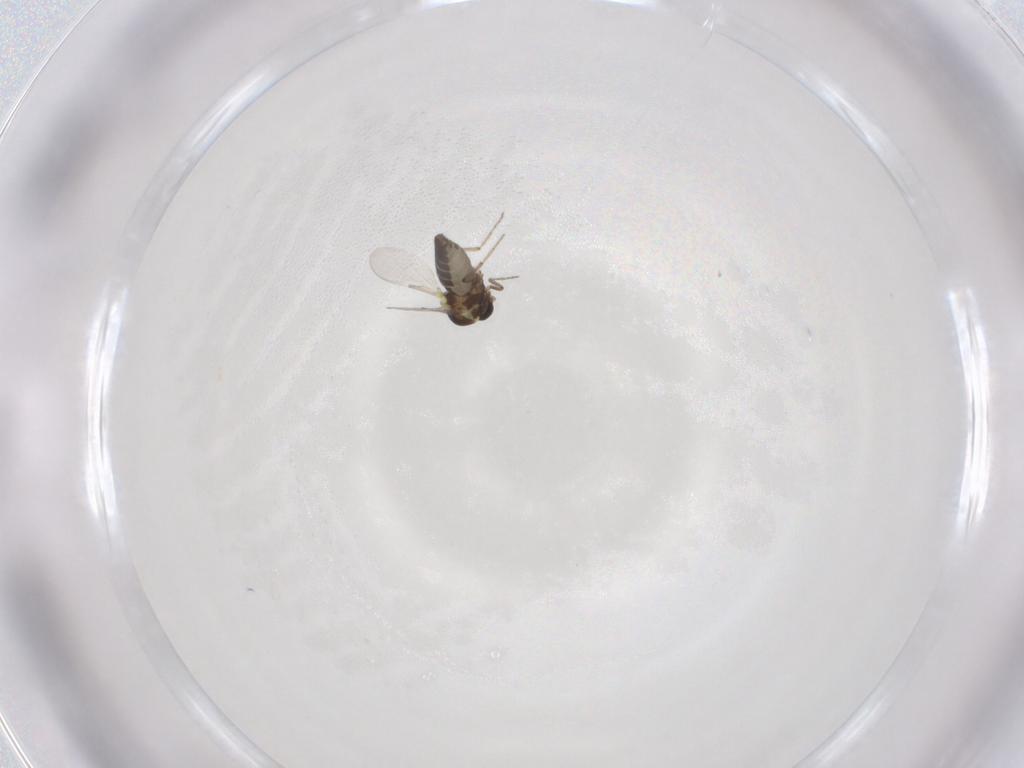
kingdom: Animalia
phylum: Arthropoda
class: Insecta
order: Diptera
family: Ceratopogonidae
